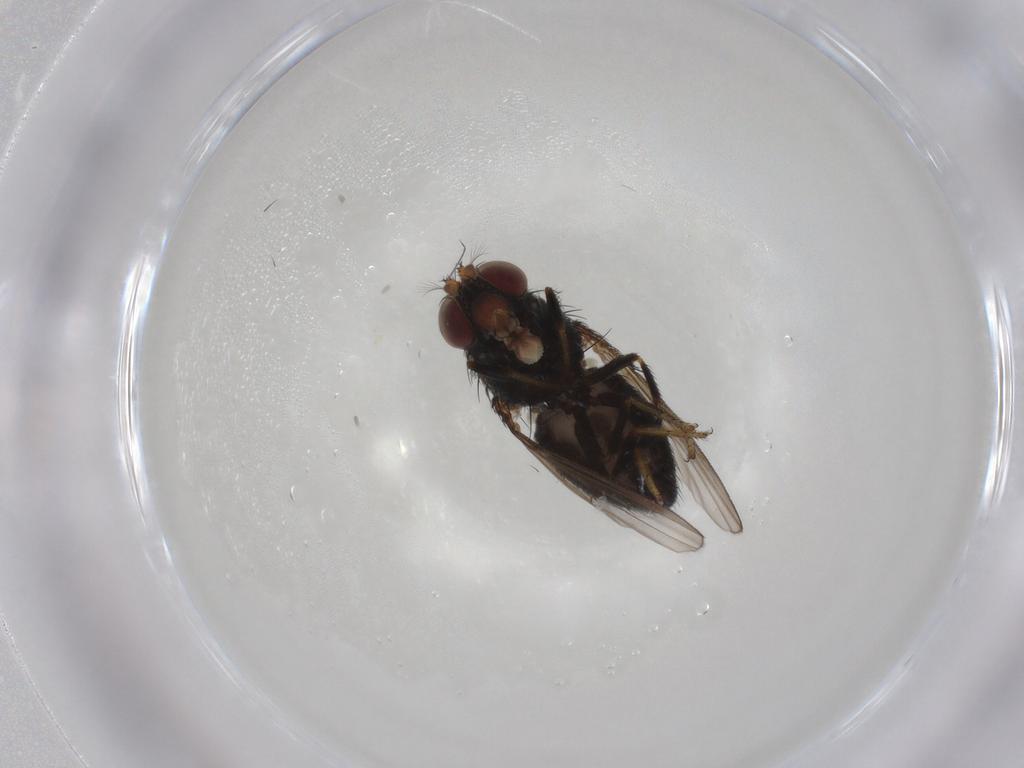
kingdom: Animalia
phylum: Arthropoda
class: Insecta
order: Diptera
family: Ephydridae
